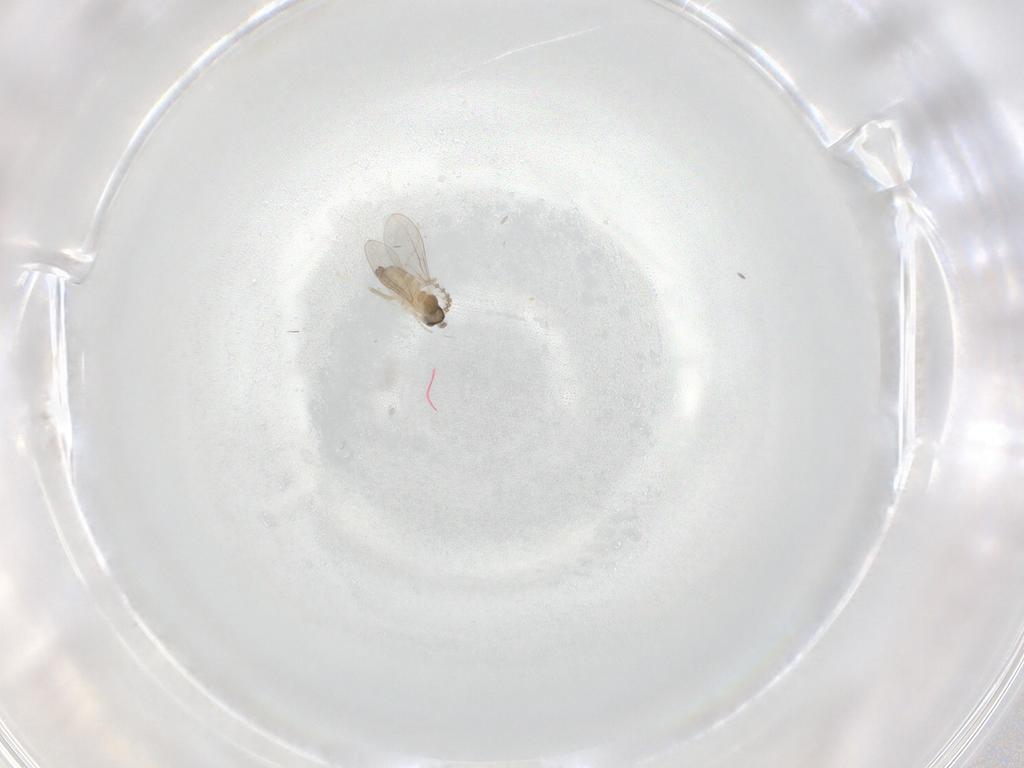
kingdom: Animalia
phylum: Arthropoda
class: Insecta
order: Diptera
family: Cecidomyiidae
